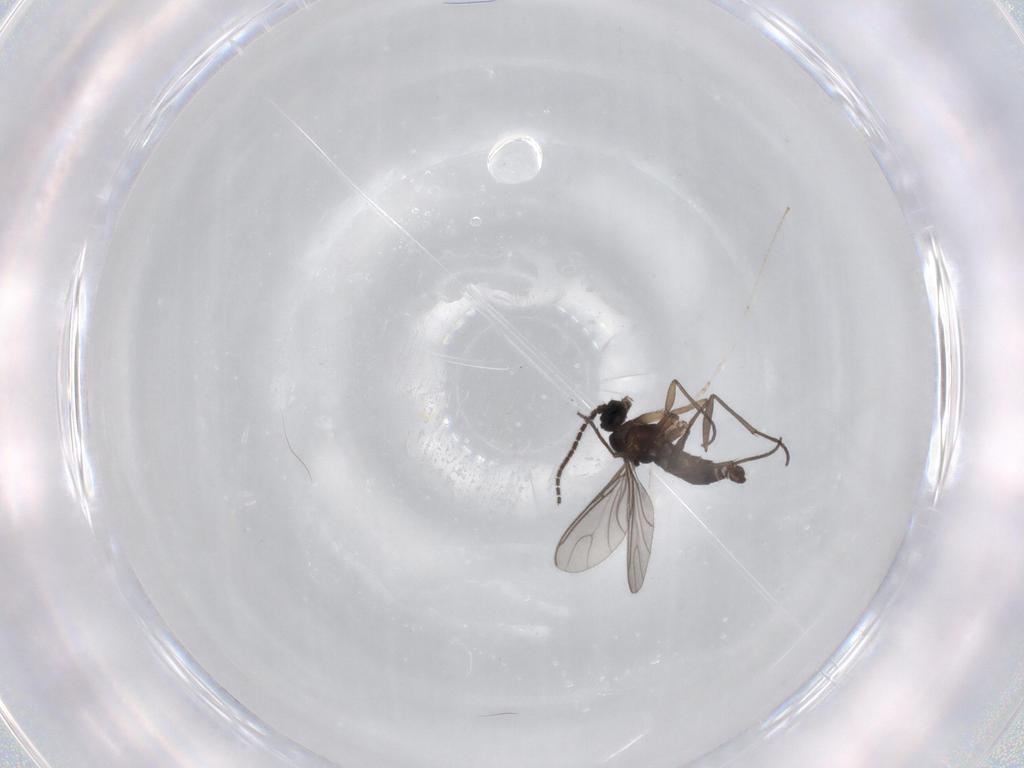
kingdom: Animalia
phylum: Arthropoda
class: Insecta
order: Diptera
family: Sciaridae
